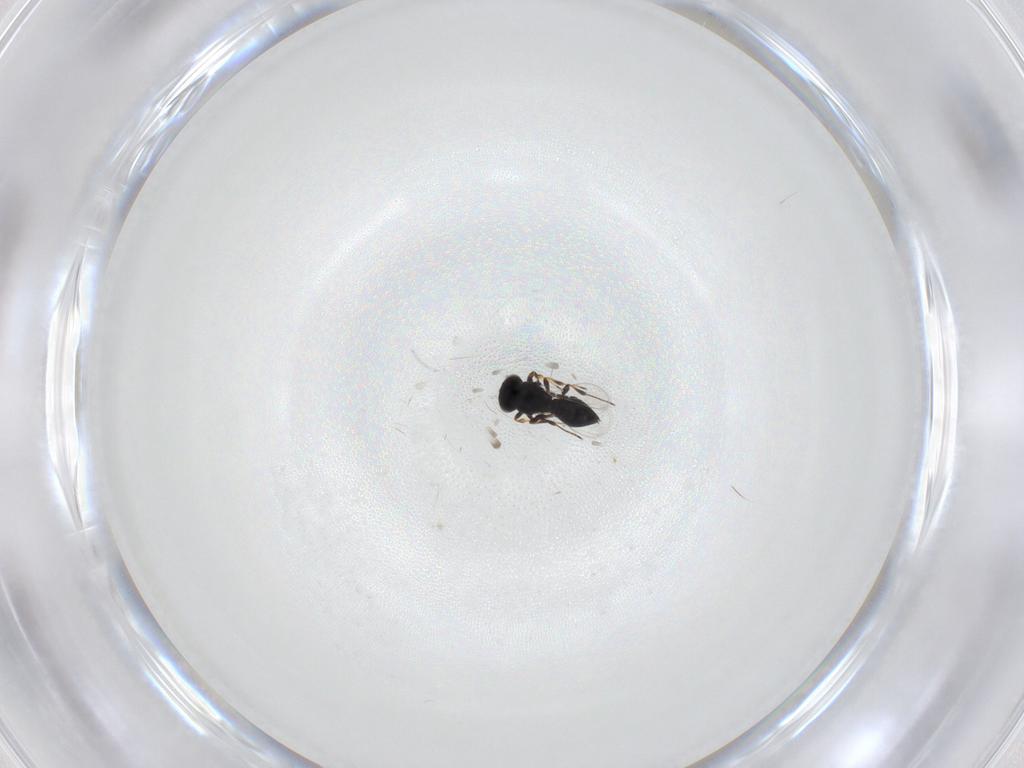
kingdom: Animalia
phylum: Arthropoda
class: Insecta
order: Hymenoptera
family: Platygastridae
